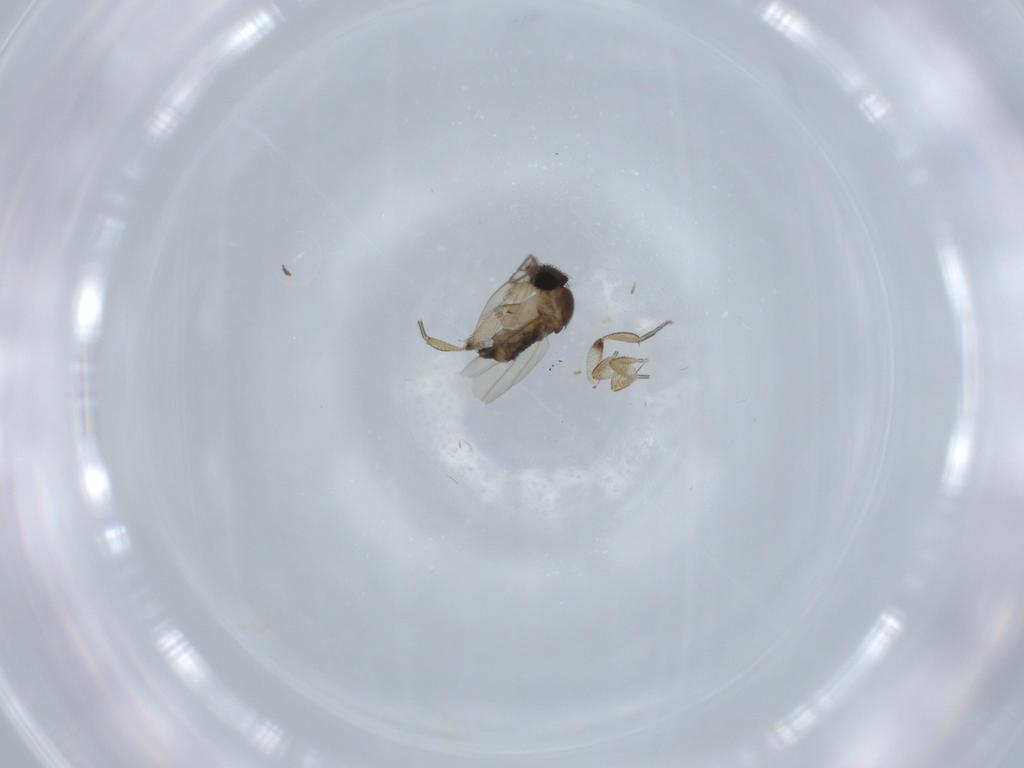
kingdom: Animalia
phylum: Arthropoda
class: Insecta
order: Diptera
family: Phoridae
